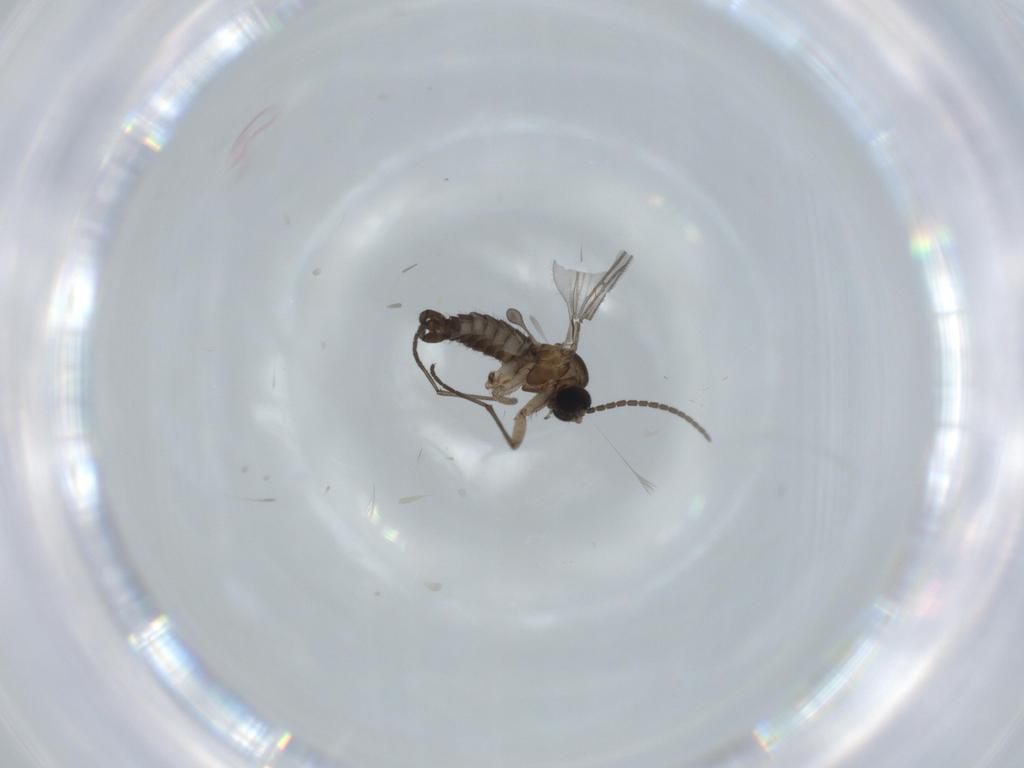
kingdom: Animalia
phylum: Arthropoda
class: Insecta
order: Diptera
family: Sciaridae
